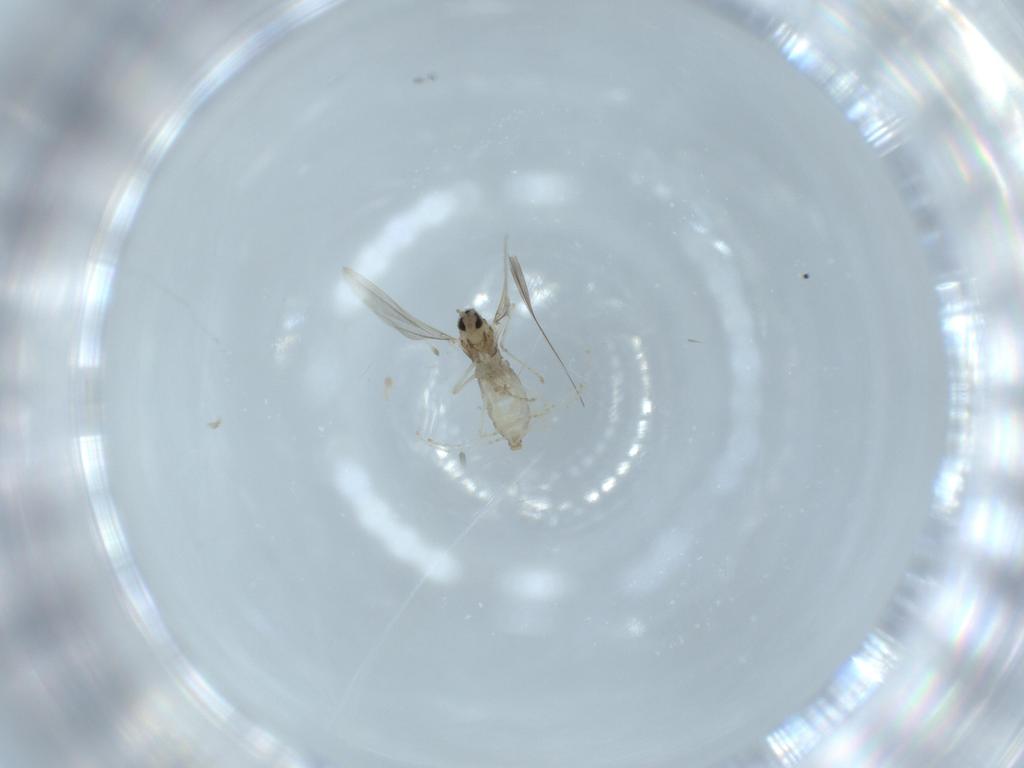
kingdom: Animalia
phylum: Arthropoda
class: Insecta
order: Diptera
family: Cecidomyiidae
